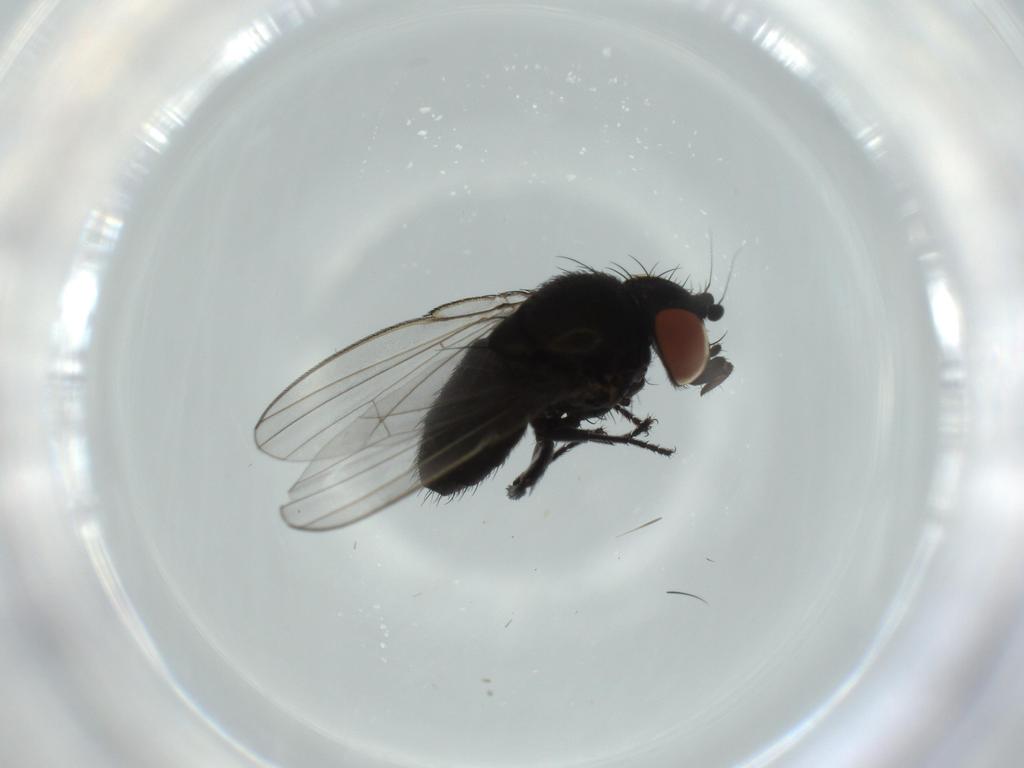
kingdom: Animalia
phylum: Arthropoda
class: Insecta
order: Diptera
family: Milichiidae
